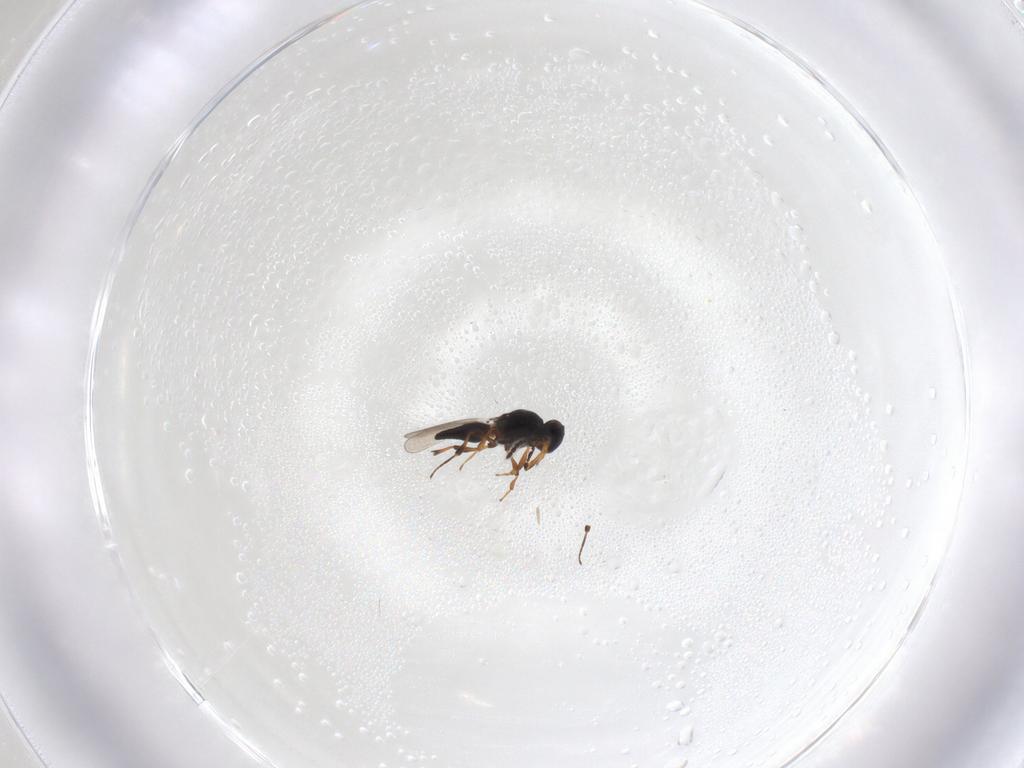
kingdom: Animalia
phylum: Arthropoda
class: Insecta
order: Hymenoptera
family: Platygastridae
